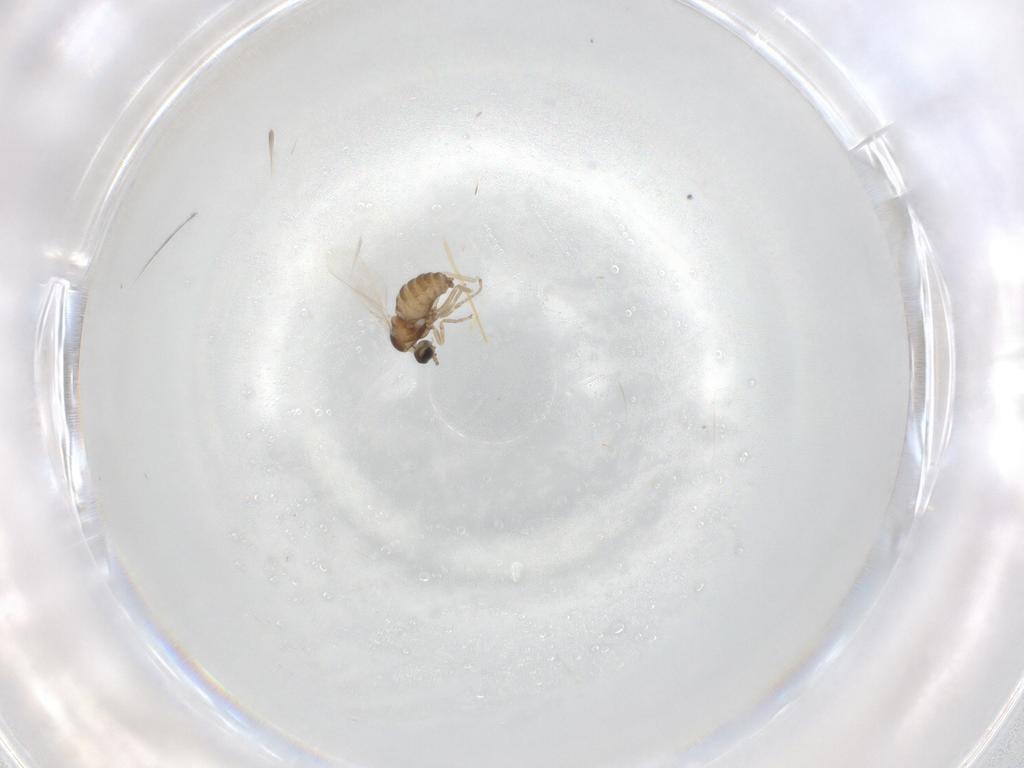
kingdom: Animalia
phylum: Arthropoda
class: Insecta
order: Diptera
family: Cecidomyiidae
